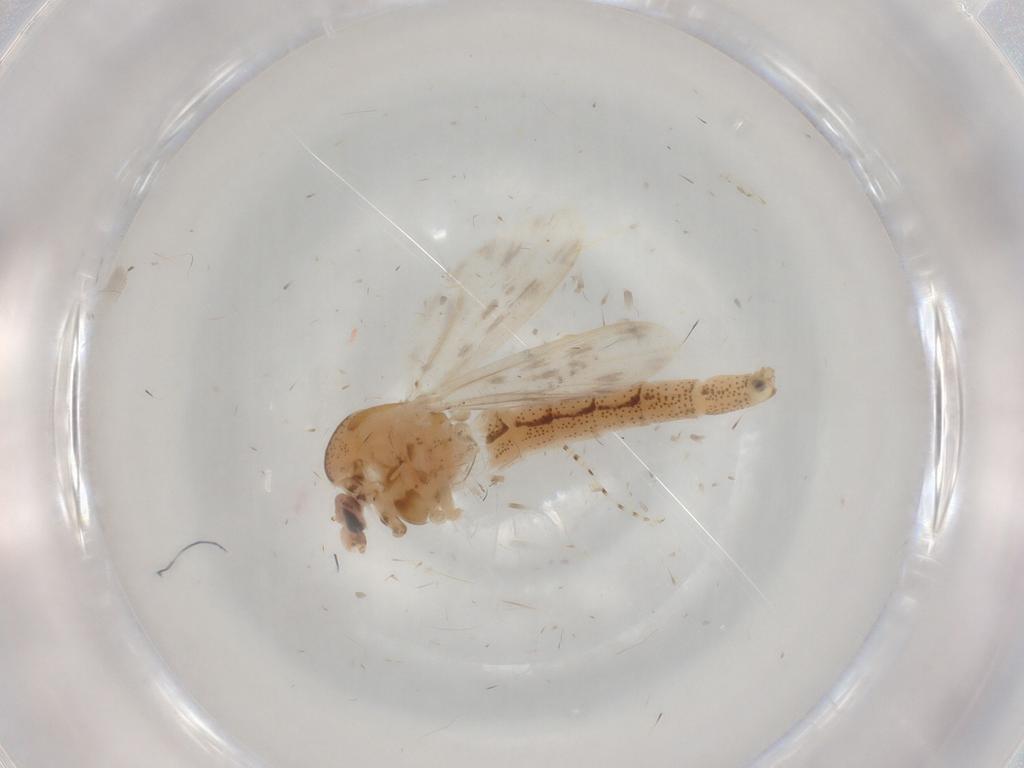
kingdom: Animalia
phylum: Arthropoda
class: Insecta
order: Diptera
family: Chaoboridae
